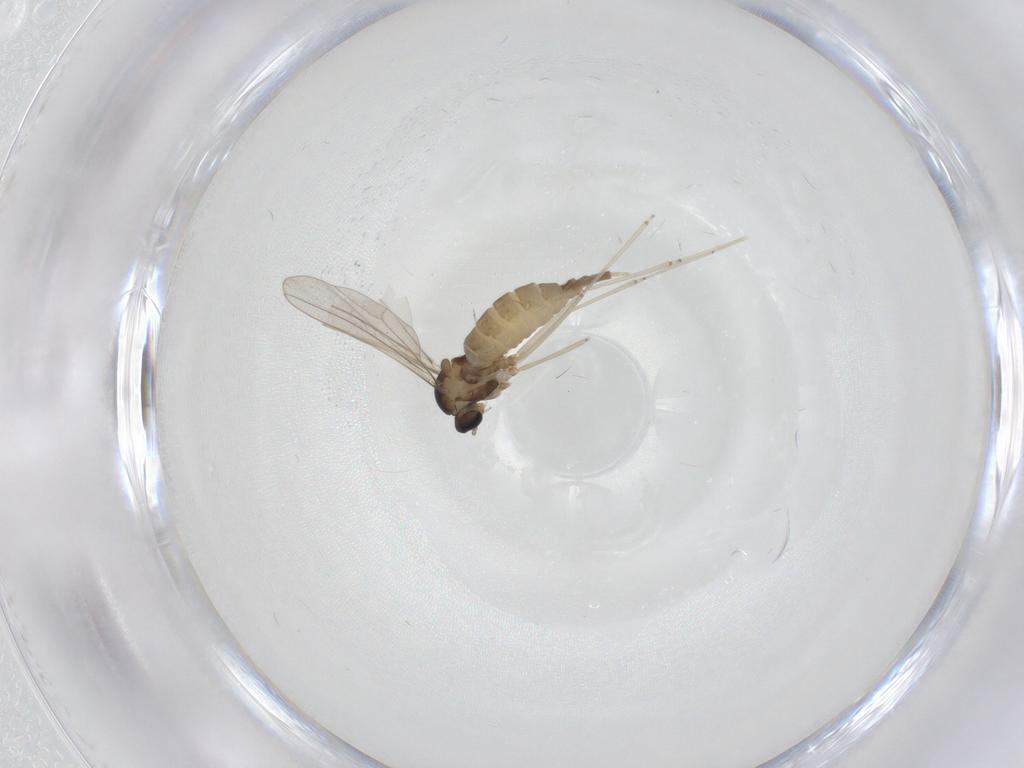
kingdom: Animalia
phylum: Arthropoda
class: Insecta
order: Diptera
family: Cecidomyiidae
